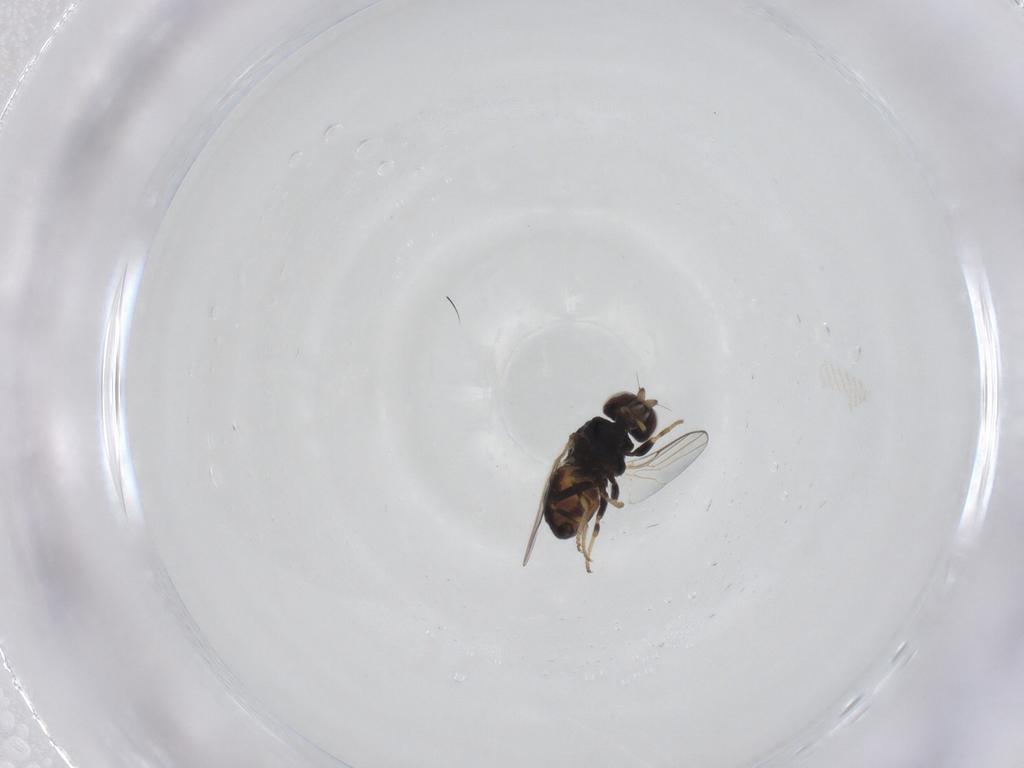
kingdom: Animalia
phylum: Arthropoda
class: Insecta
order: Diptera
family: Chloropidae
